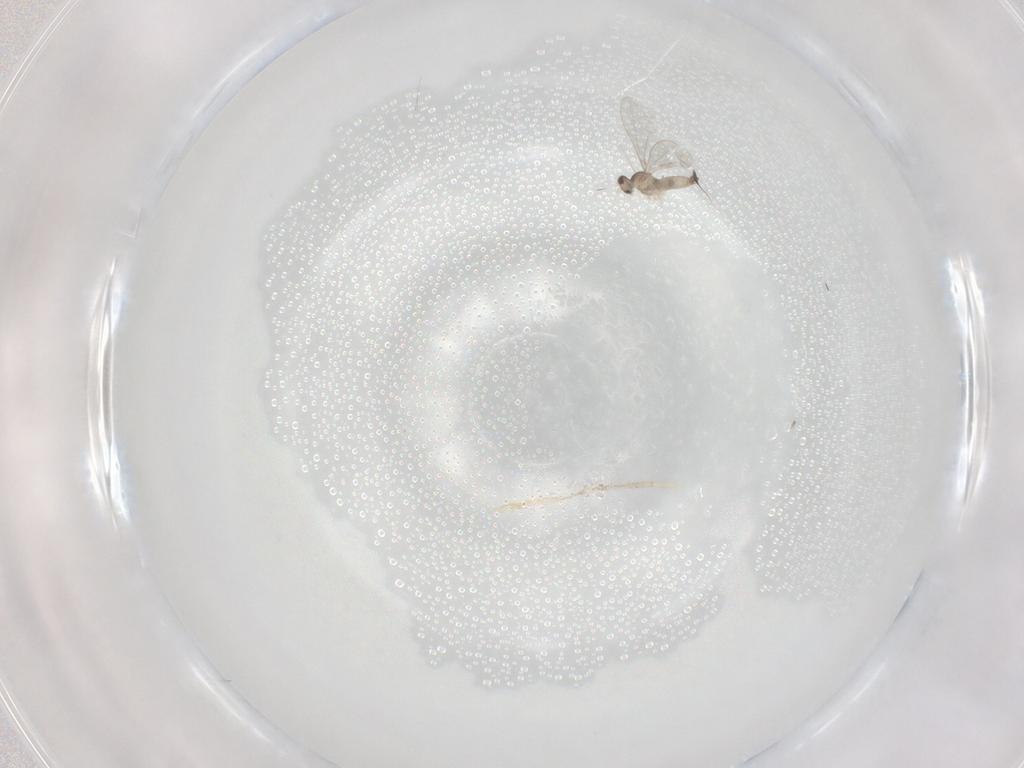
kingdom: Animalia
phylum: Arthropoda
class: Insecta
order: Diptera
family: Cecidomyiidae
